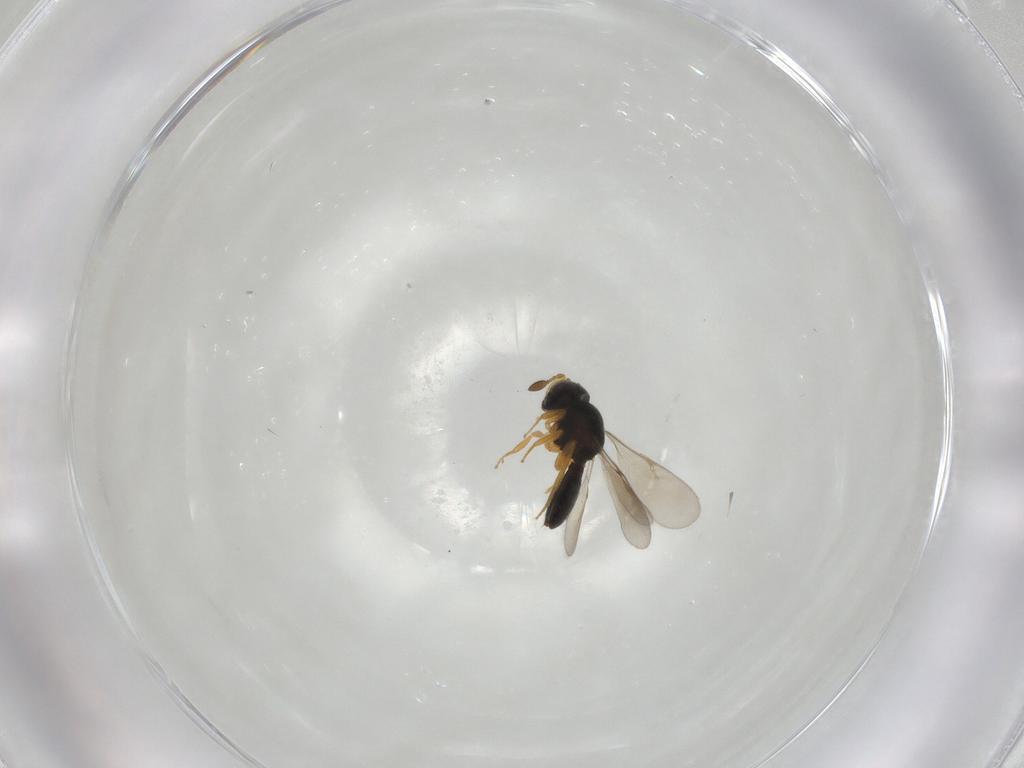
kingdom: Animalia
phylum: Arthropoda
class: Insecta
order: Hymenoptera
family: Scelionidae
